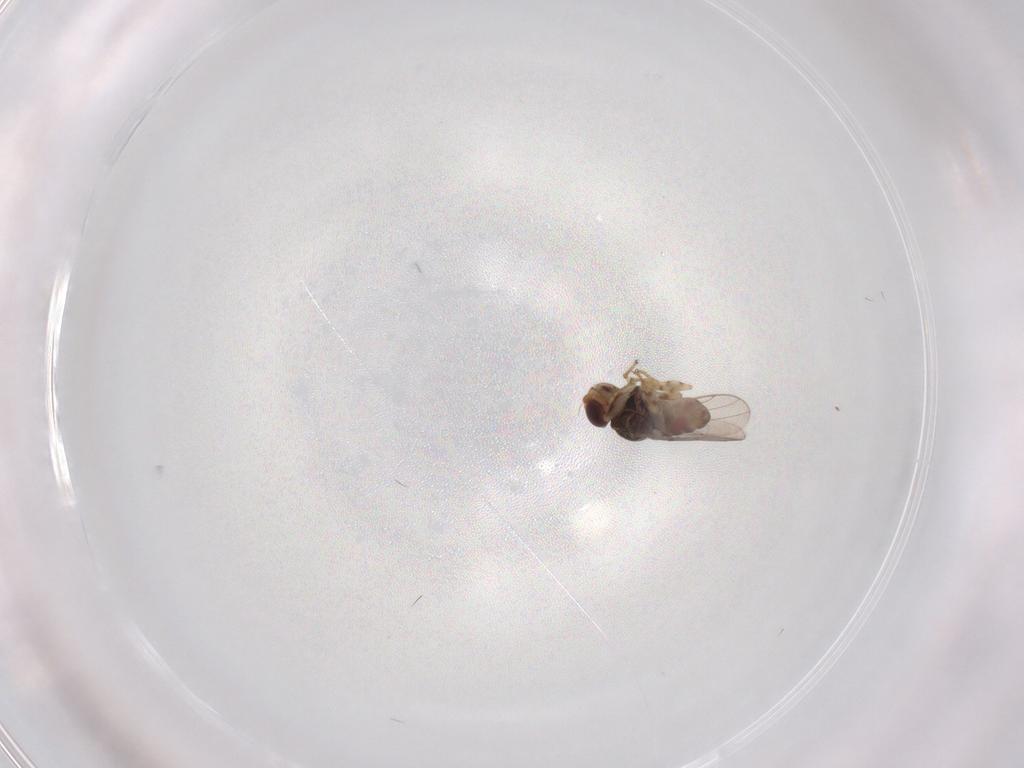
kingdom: Animalia
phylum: Arthropoda
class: Insecta
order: Diptera
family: Chloropidae
